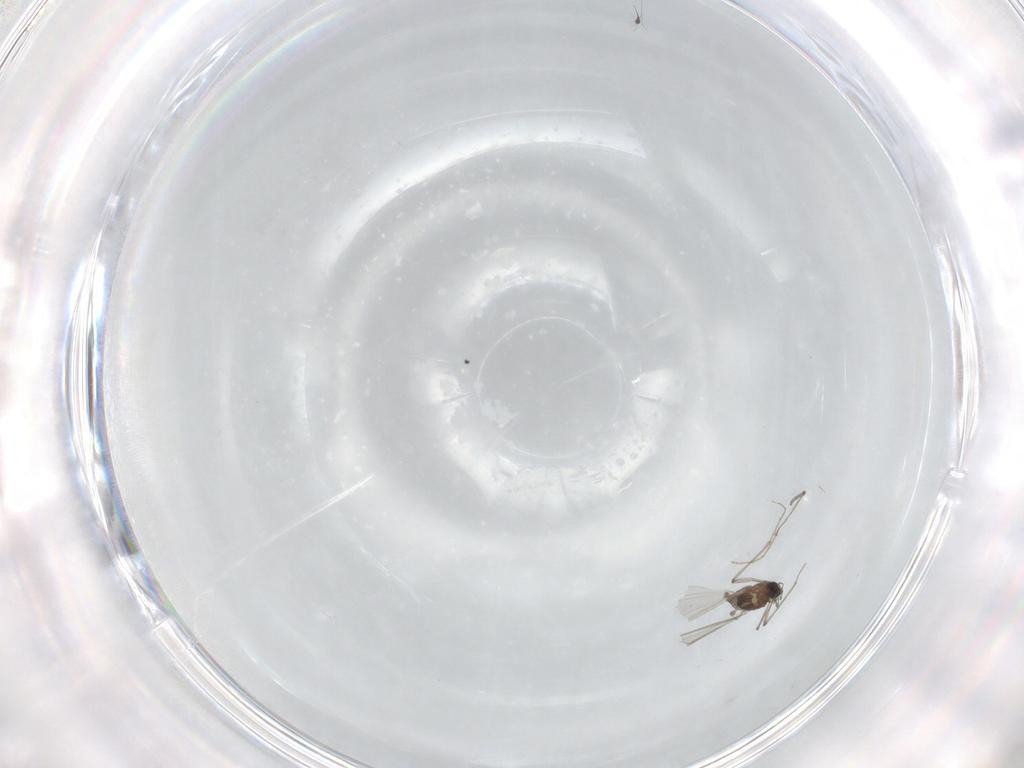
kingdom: Animalia
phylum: Arthropoda
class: Insecta
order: Diptera
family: Chironomidae
